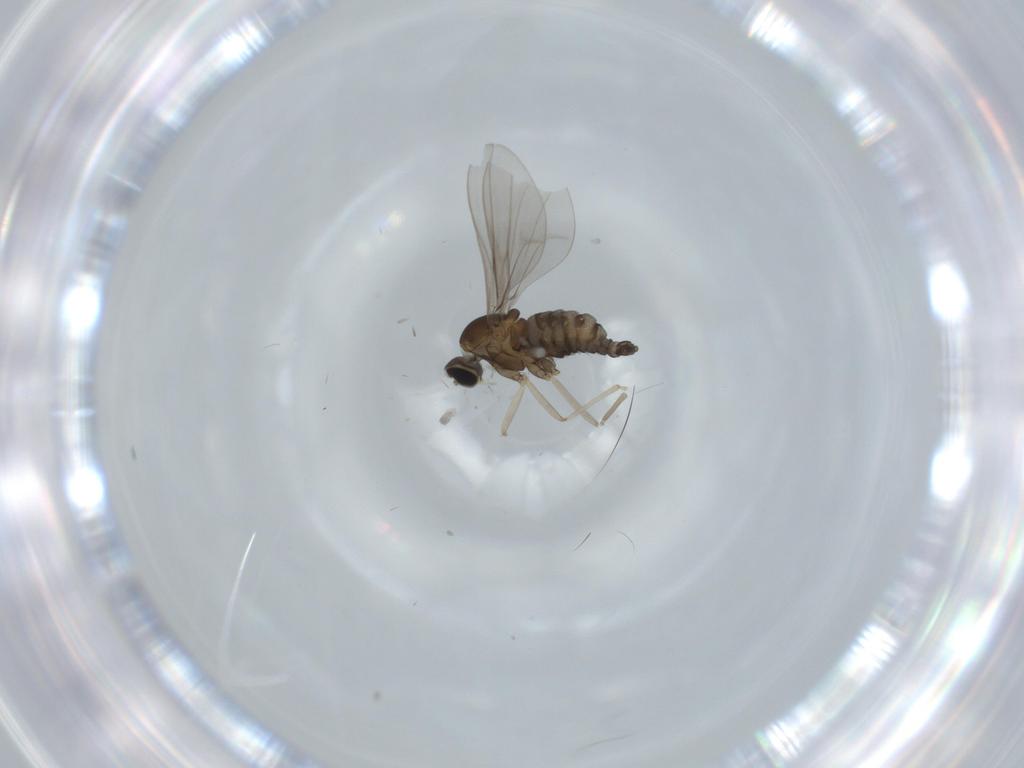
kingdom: Animalia
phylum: Arthropoda
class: Insecta
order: Diptera
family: Cecidomyiidae
